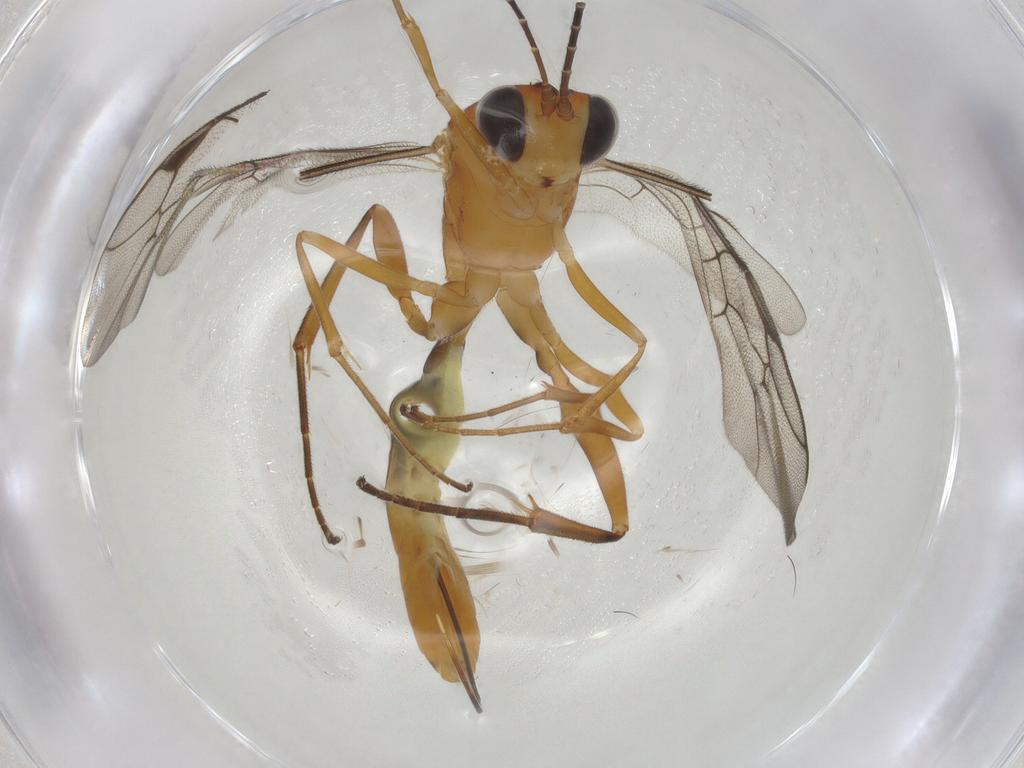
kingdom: Animalia
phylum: Arthropoda
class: Insecta
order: Hymenoptera
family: Ichneumonidae
